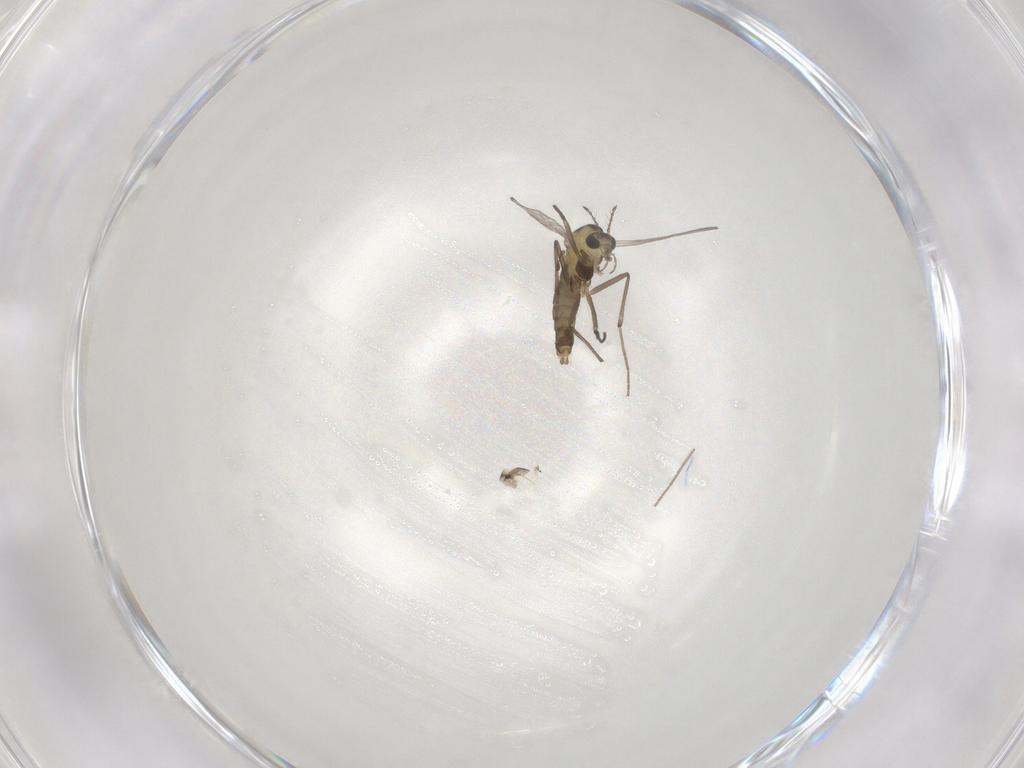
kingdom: Animalia
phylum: Arthropoda
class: Insecta
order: Diptera
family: Chironomidae
